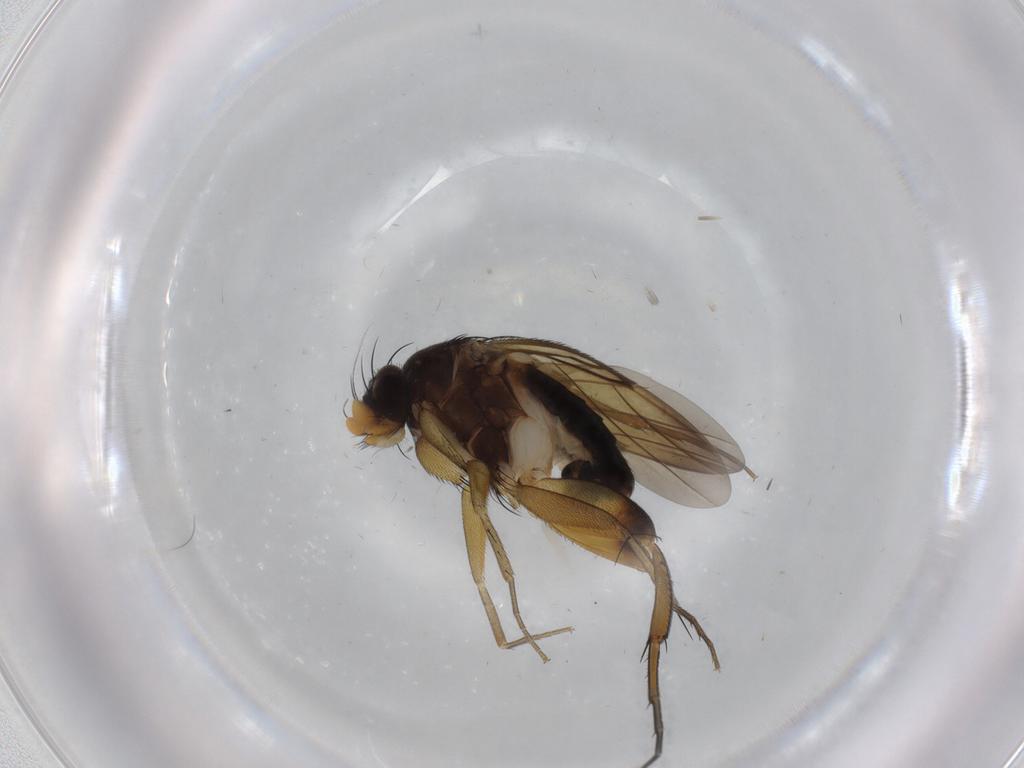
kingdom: Animalia
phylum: Arthropoda
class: Insecta
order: Diptera
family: Phoridae
